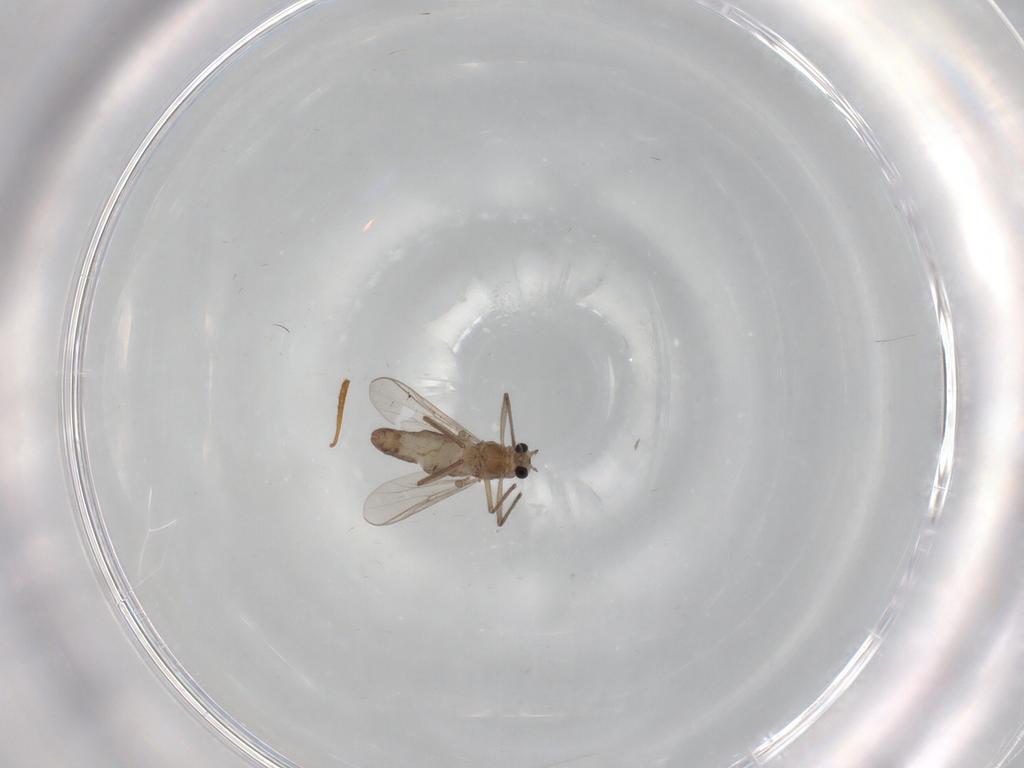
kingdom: Animalia
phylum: Arthropoda
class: Insecta
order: Diptera
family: Chironomidae
